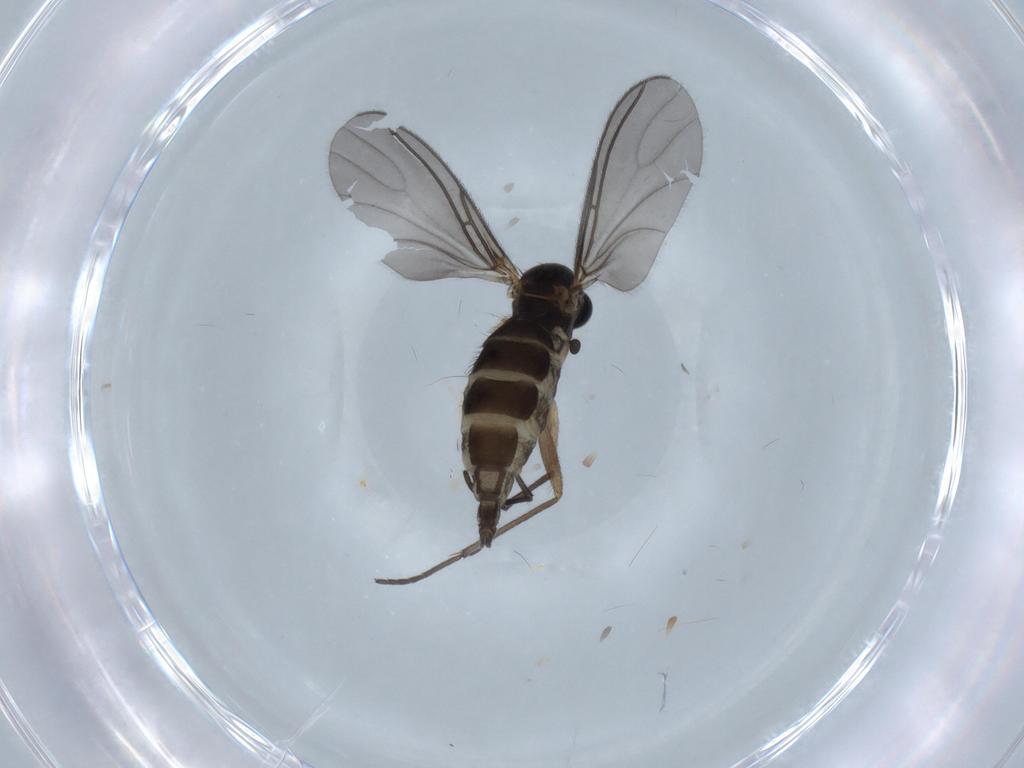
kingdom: Animalia
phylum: Arthropoda
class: Insecta
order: Diptera
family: Sciaridae
